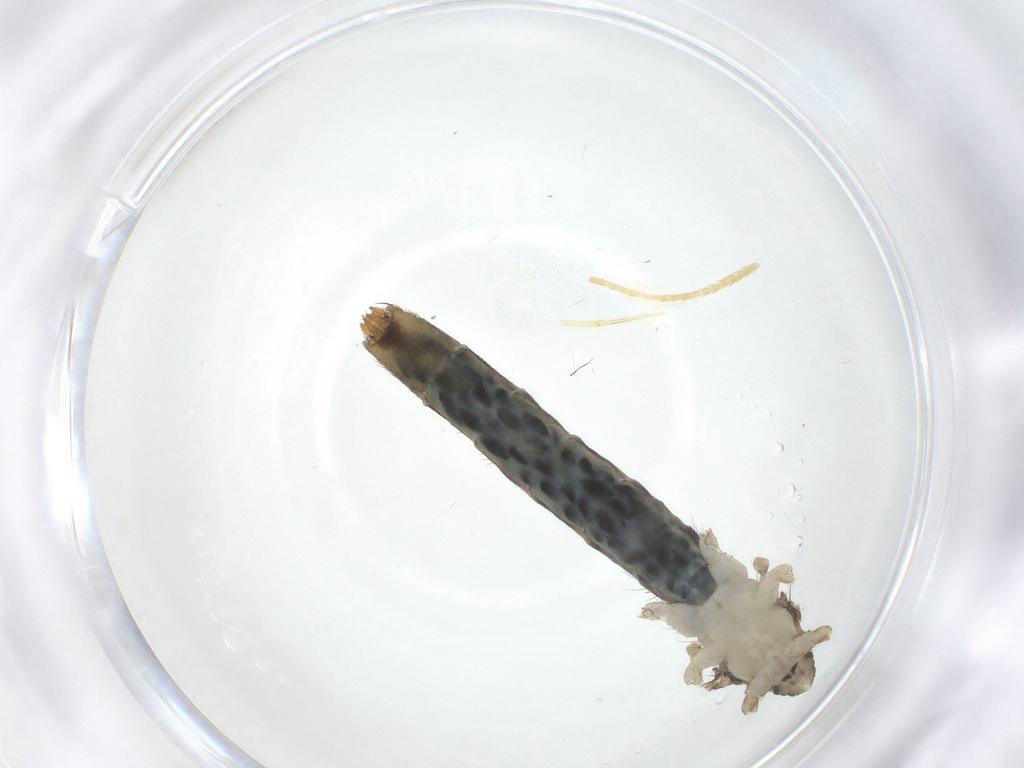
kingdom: Animalia
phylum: Arthropoda
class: Insecta
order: Diptera
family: Limoniidae
